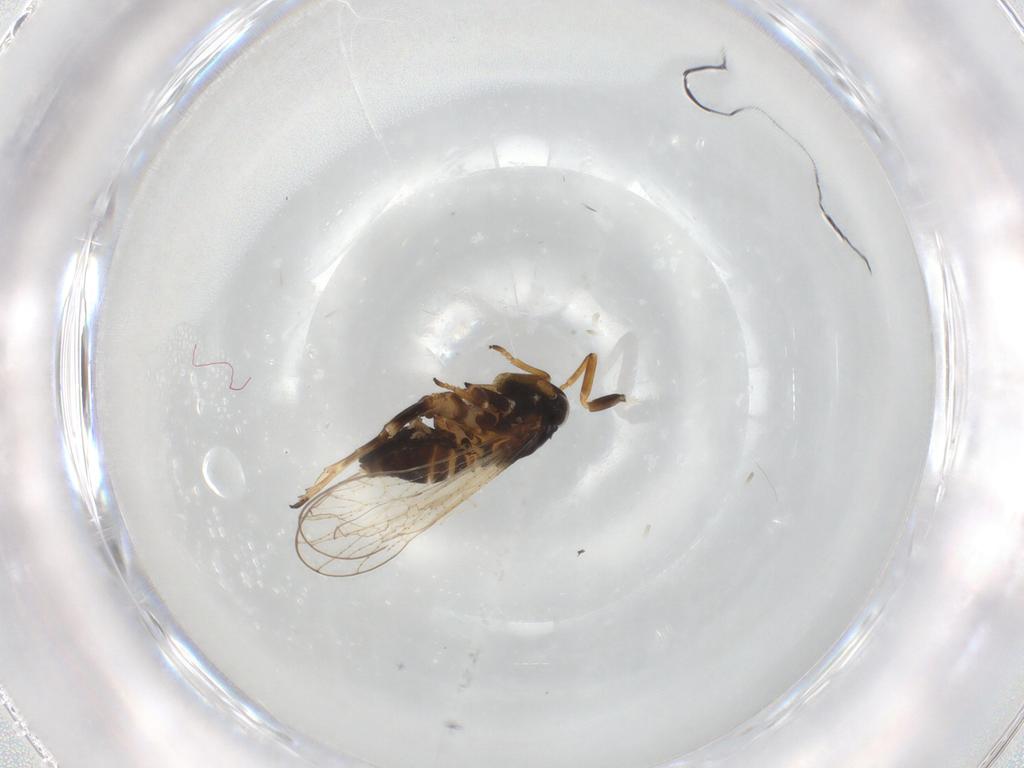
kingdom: Animalia
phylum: Arthropoda
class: Insecta
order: Hemiptera
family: Delphacidae
